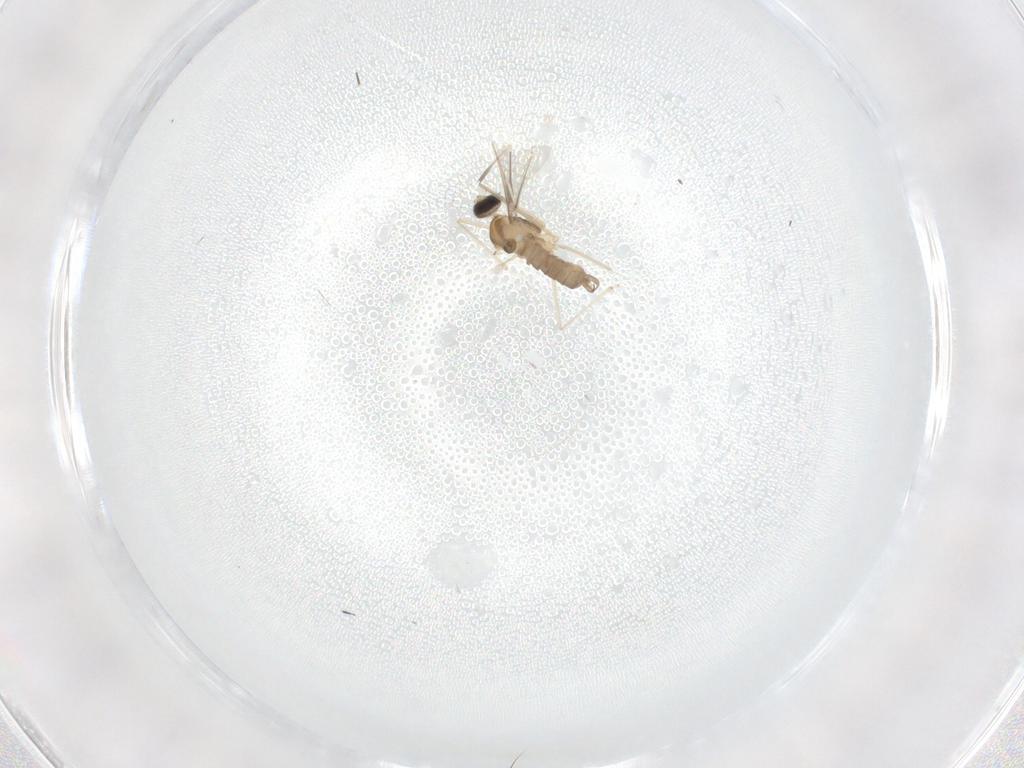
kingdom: Animalia
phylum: Arthropoda
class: Insecta
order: Diptera
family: Cecidomyiidae
